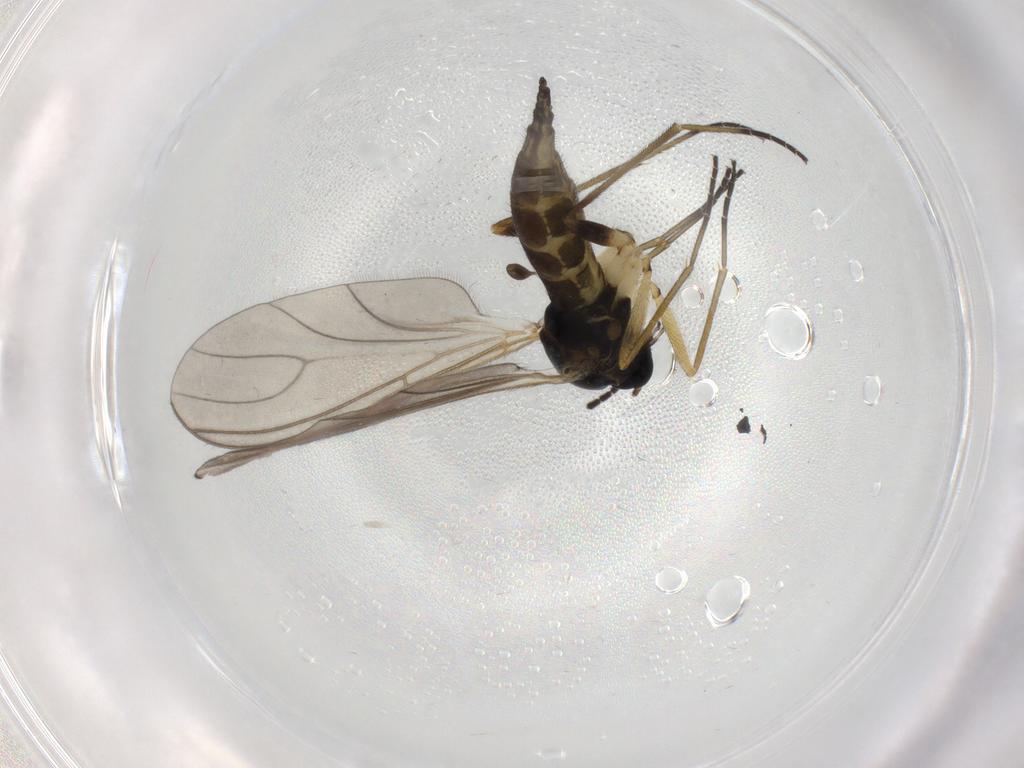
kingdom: Animalia
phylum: Arthropoda
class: Insecta
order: Diptera
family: Sciaridae
